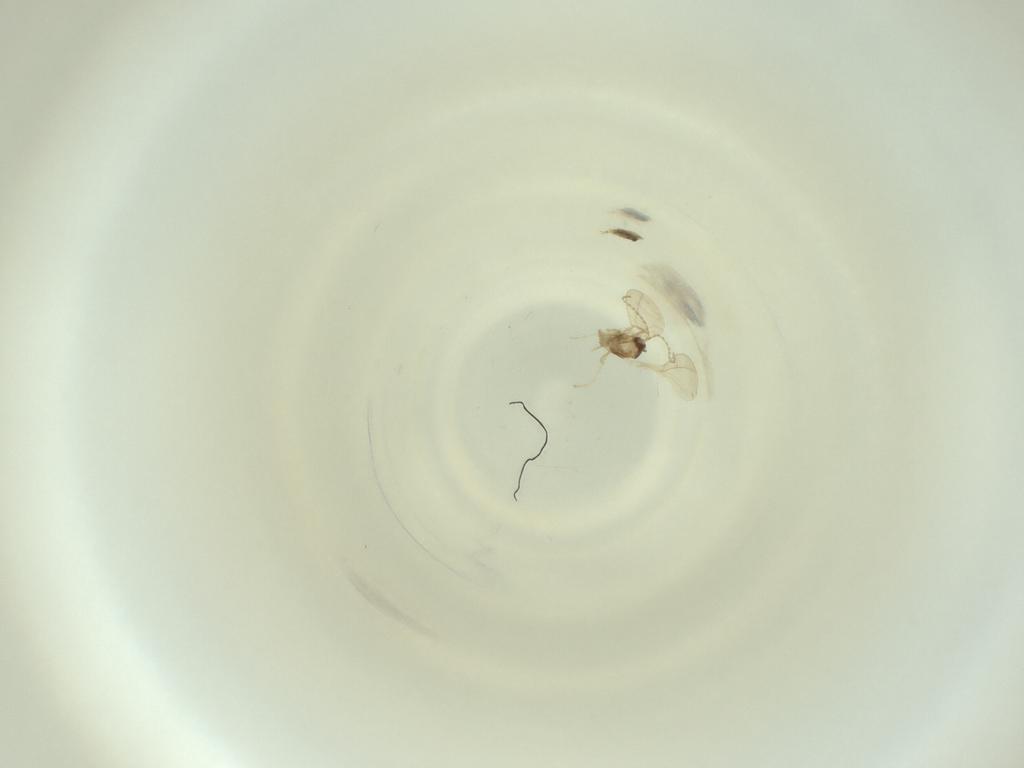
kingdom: Animalia
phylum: Arthropoda
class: Insecta
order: Diptera
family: Cecidomyiidae
